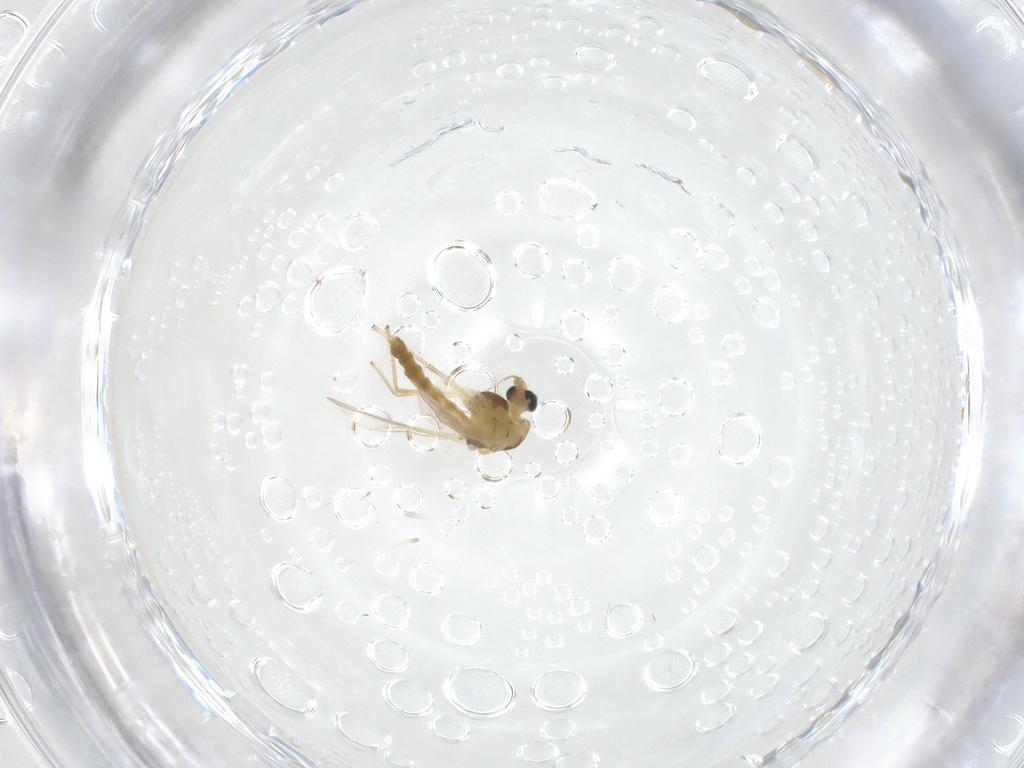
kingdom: Animalia
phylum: Arthropoda
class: Insecta
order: Diptera
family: Chironomidae
